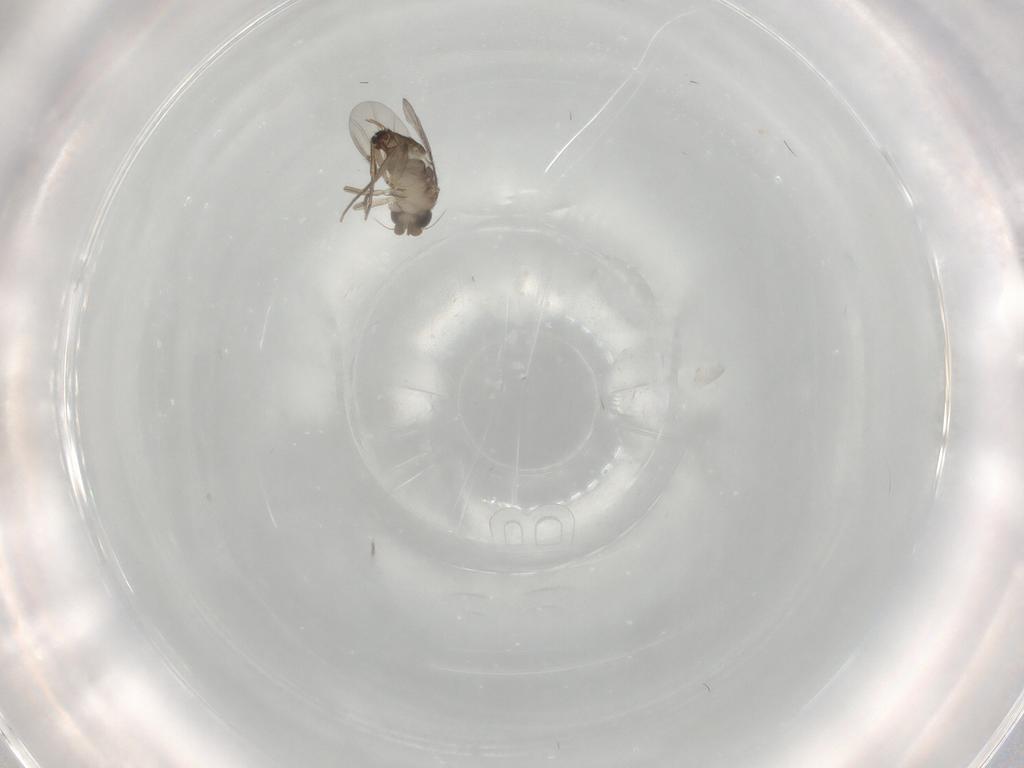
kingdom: Animalia
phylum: Arthropoda
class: Insecta
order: Diptera
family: Phoridae
